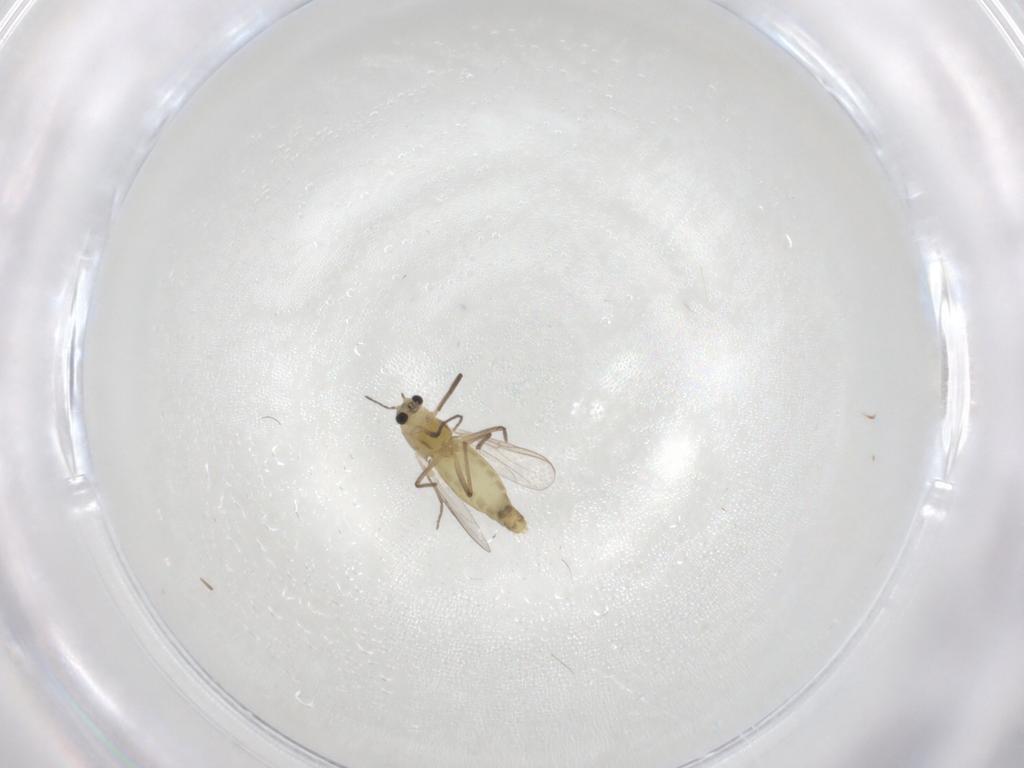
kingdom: Animalia
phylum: Arthropoda
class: Insecta
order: Diptera
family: Chironomidae
